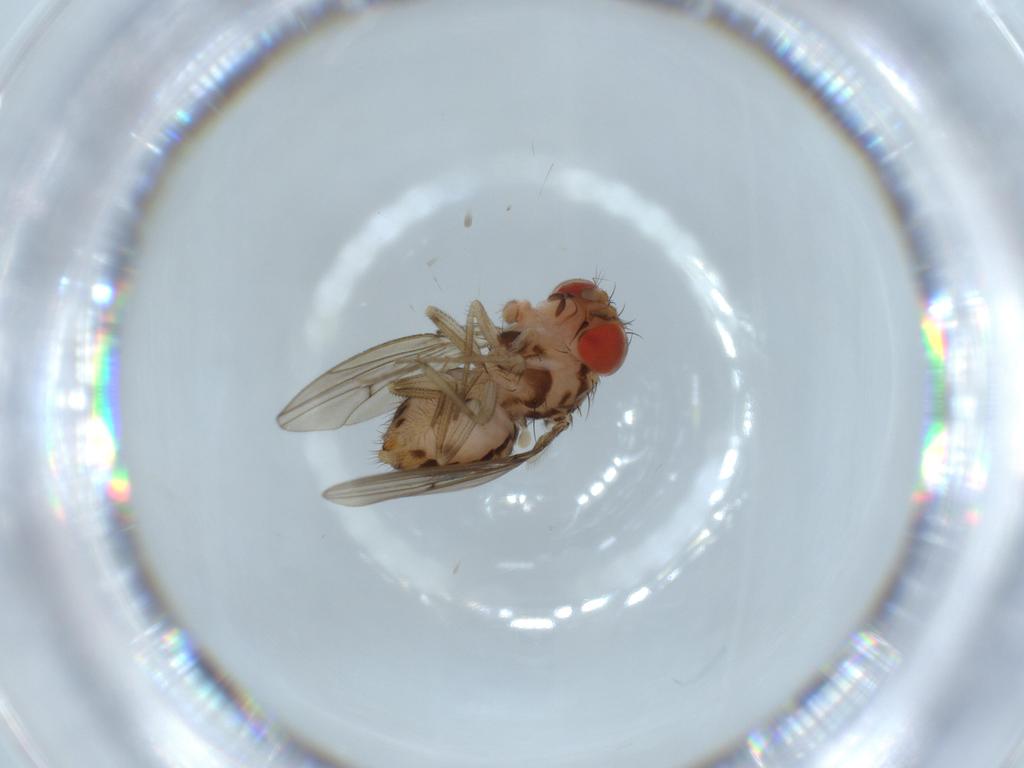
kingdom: Animalia
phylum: Arthropoda
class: Insecta
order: Diptera
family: Drosophilidae
